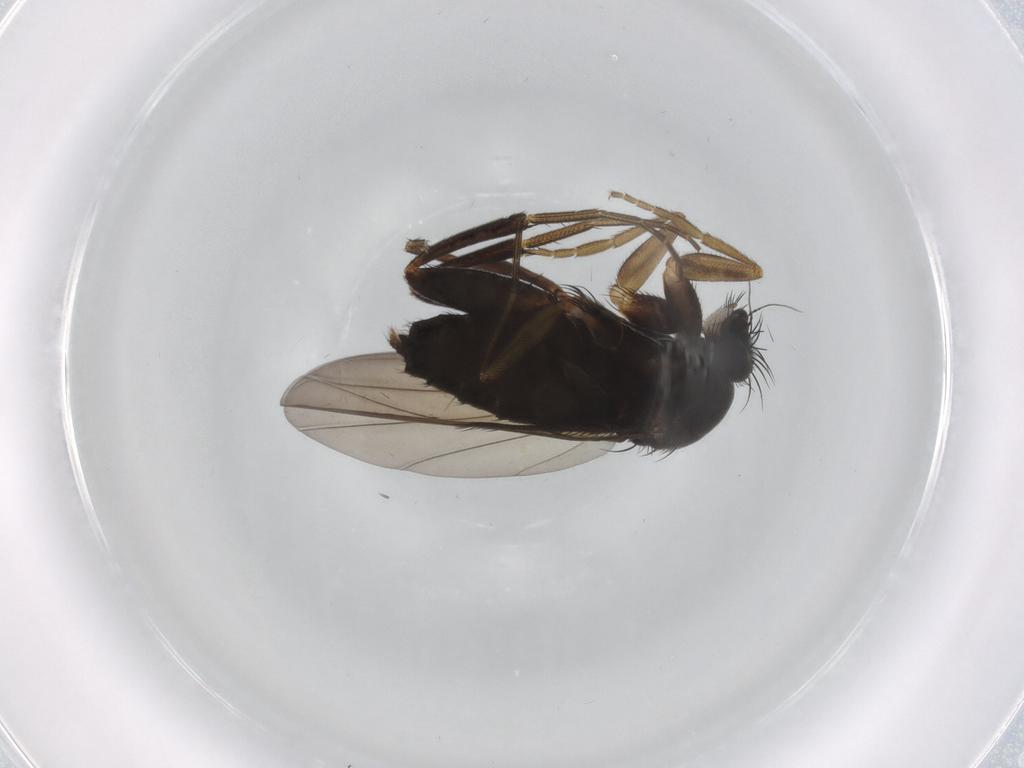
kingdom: Animalia
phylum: Arthropoda
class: Insecta
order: Diptera
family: Phoridae
